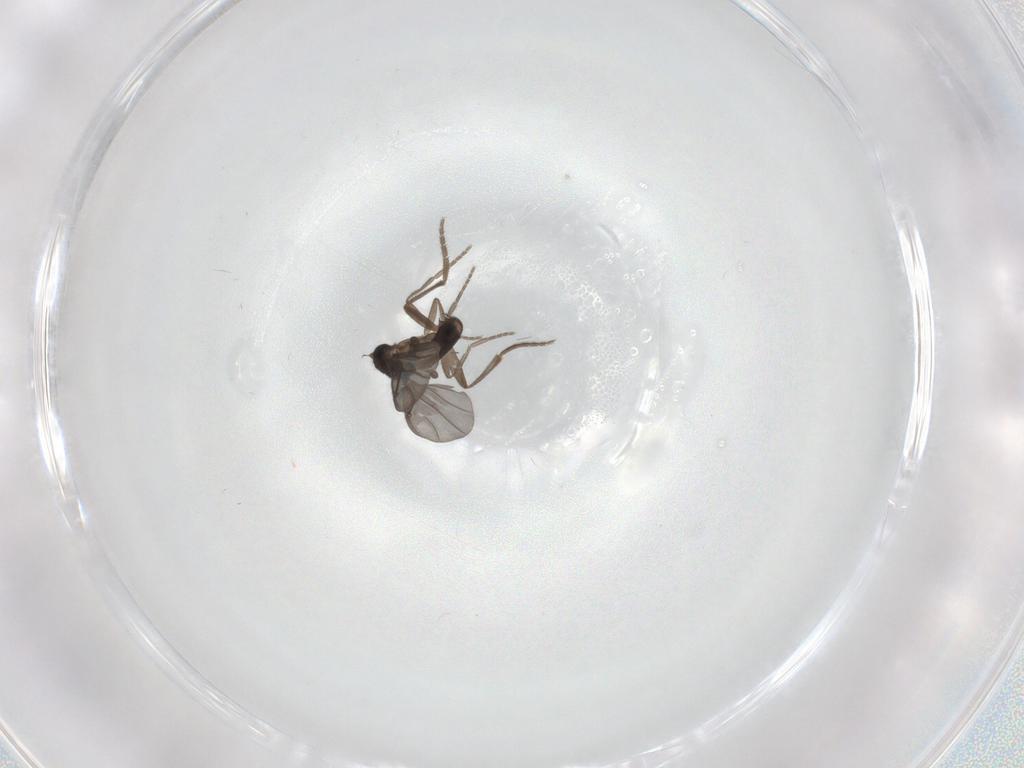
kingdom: Animalia
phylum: Arthropoda
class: Insecta
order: Diptera
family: Phoridae
